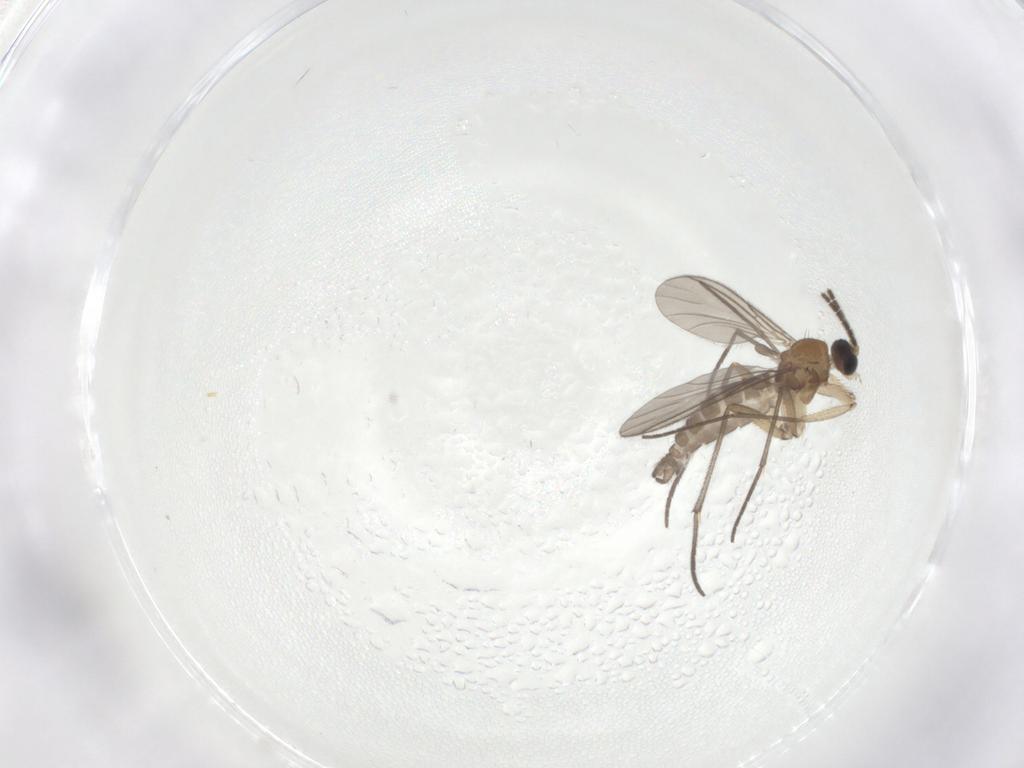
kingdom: Animalia
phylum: Arthropoda
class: Insecta
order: Diptera
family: Sciaridae
